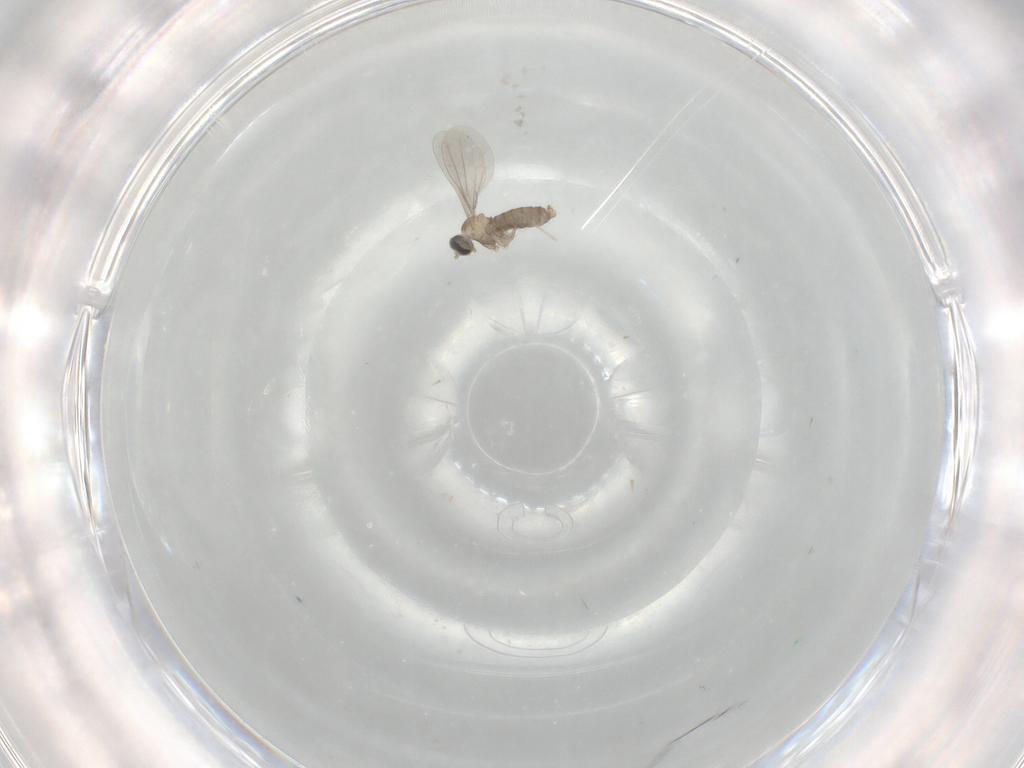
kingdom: Animalia
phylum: Arthropoda
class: Insecta
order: Diptera
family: Cecidomyiidae
